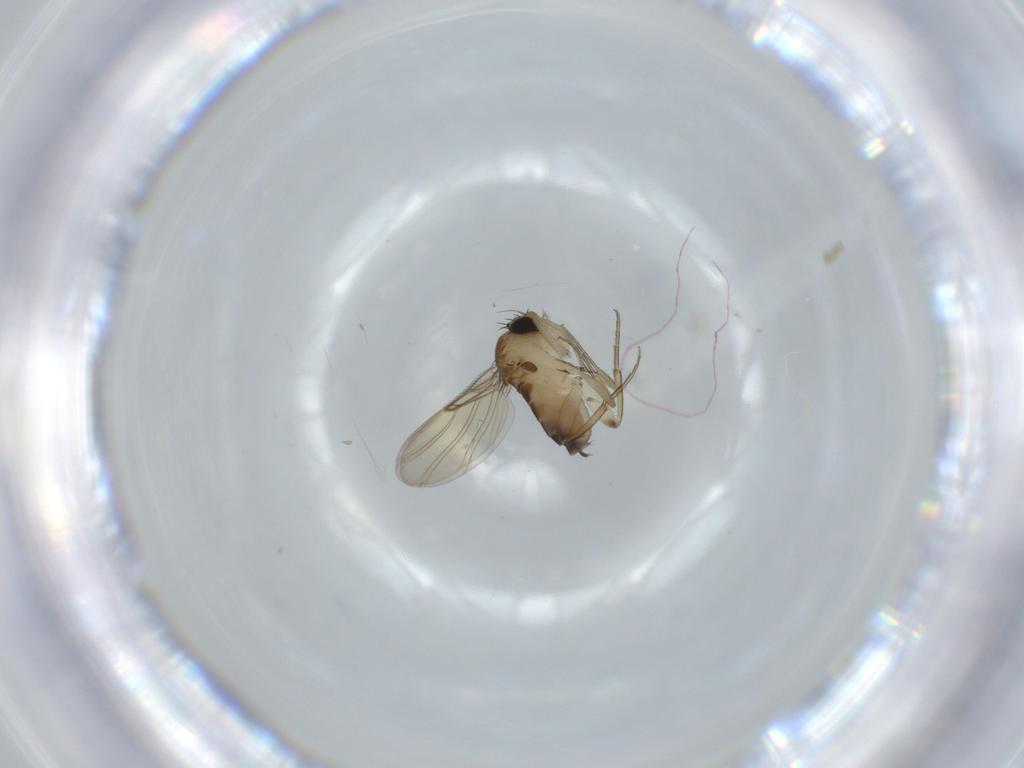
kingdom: Animalia
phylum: Arthropoda
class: Insecta
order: Diptera
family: Phoridae
